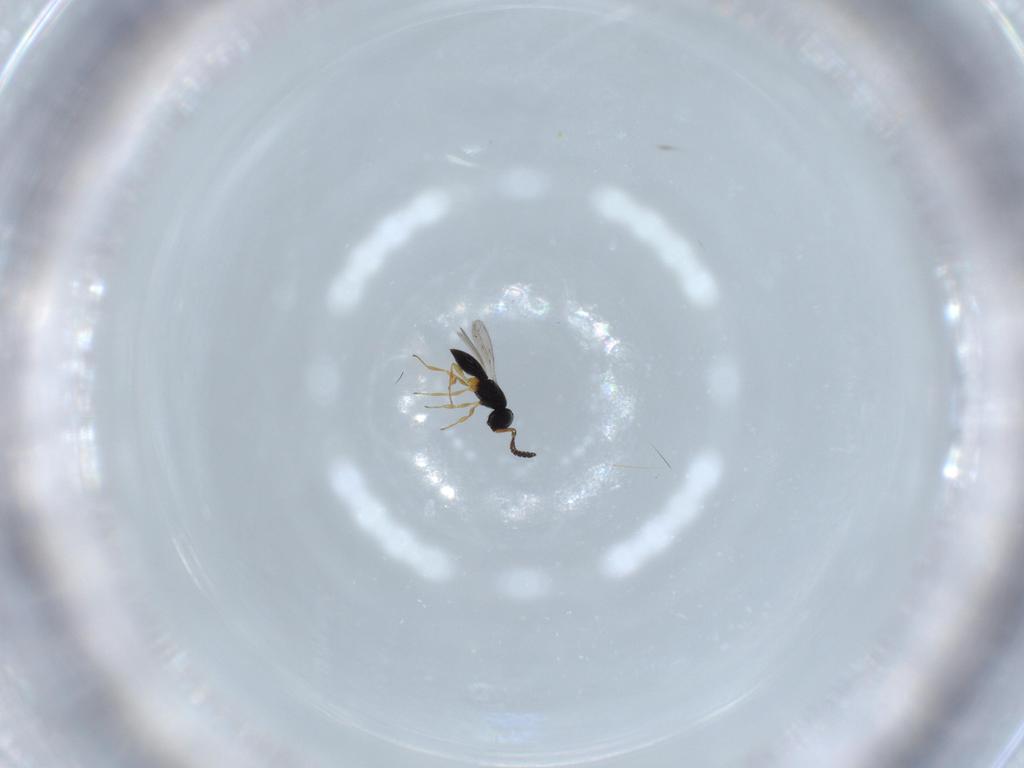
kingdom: Animalia
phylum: Arthropoda
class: Insecta
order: Hymenoptera
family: Scelionidae
